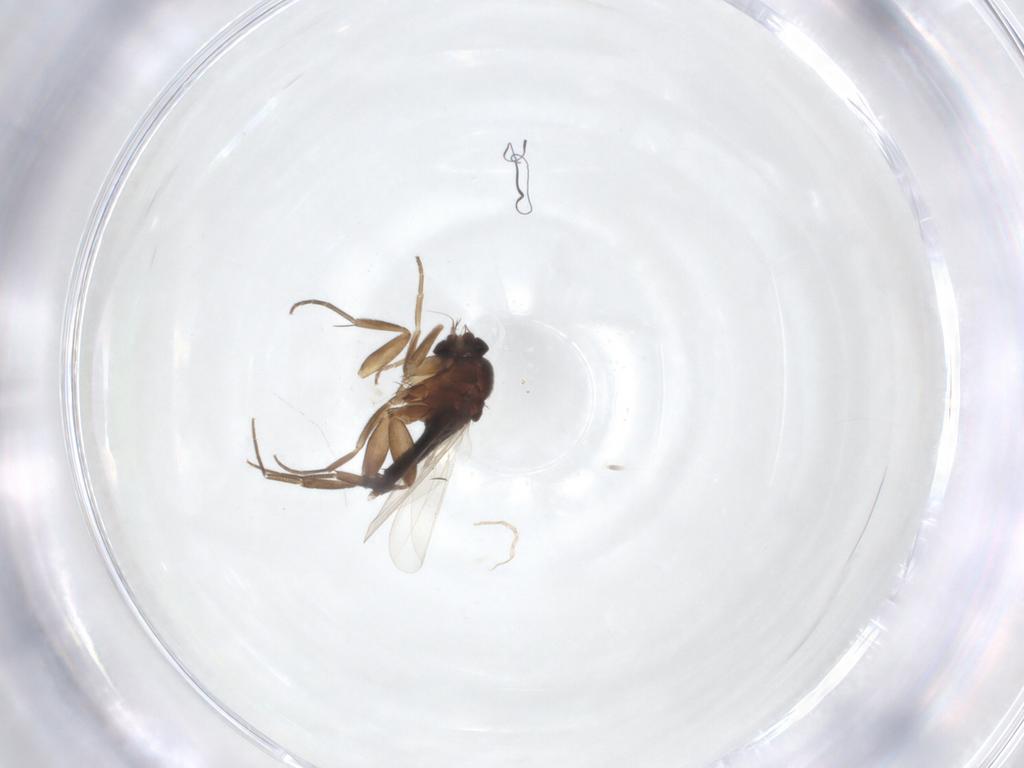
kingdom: Animalia
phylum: Arthropoda
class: Insecta
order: Diptera
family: Phoridae
